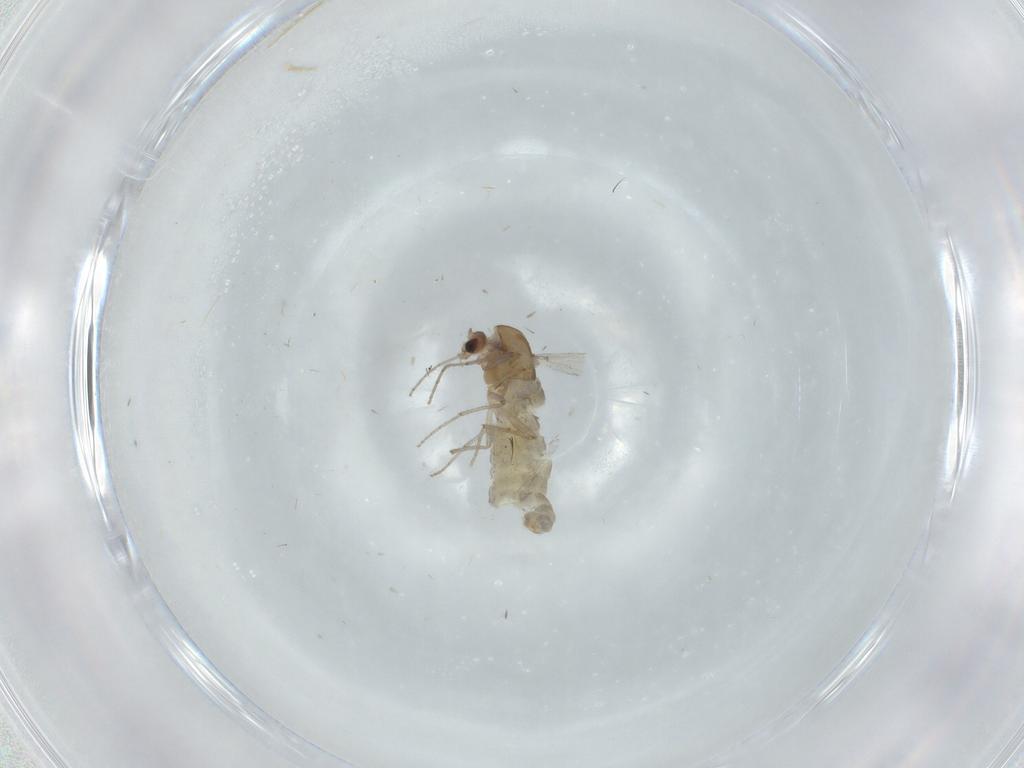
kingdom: Animalia
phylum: Arthropoda
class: Insecta
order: Diptera
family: Chironomidae
